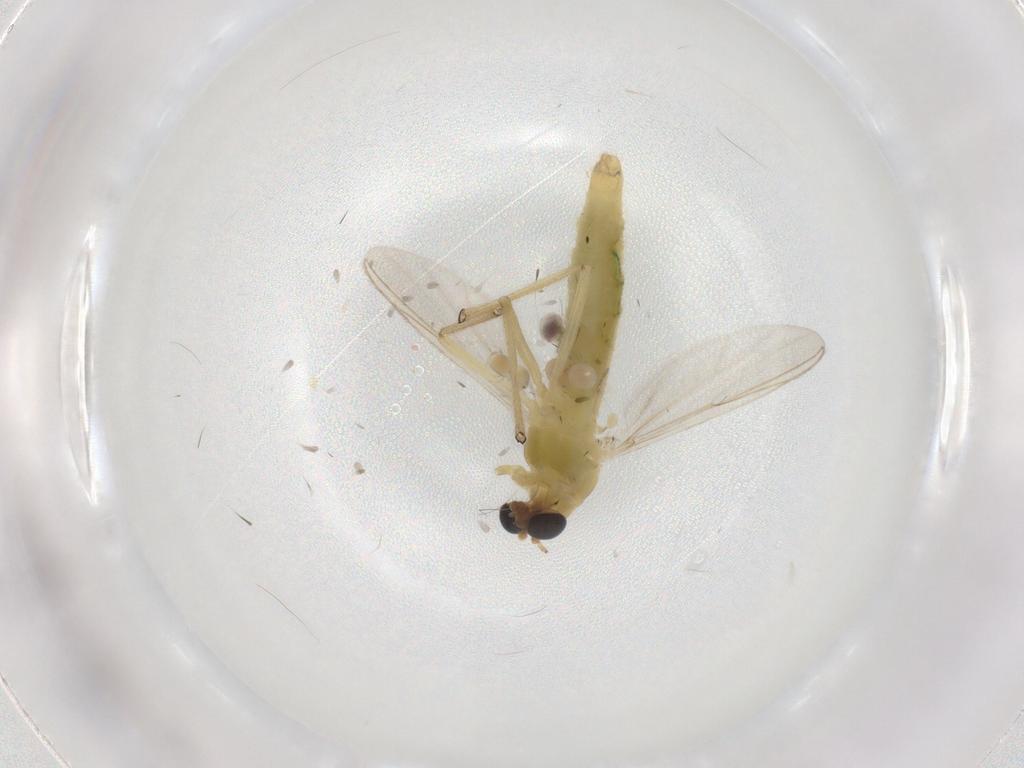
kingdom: Animalia
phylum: Arthropoda
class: Insecta
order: Diptera
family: Chironomidae
